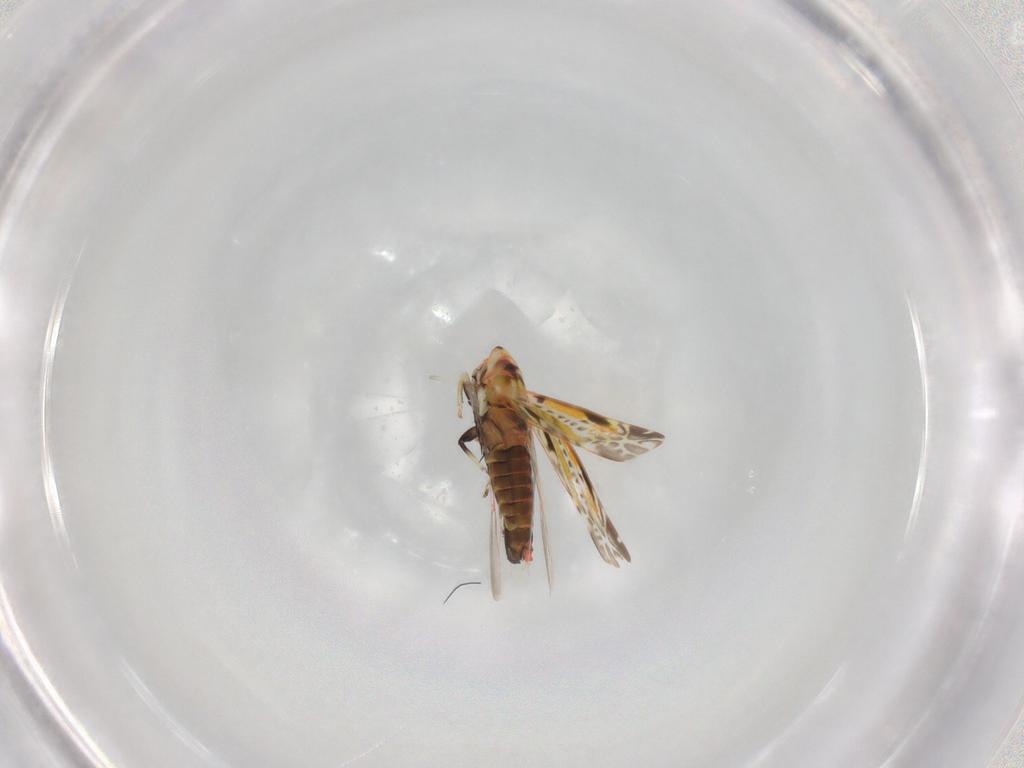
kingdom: Animalia
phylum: Arthropoda
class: Insecta
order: Hemiptera
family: Cicadellidae
